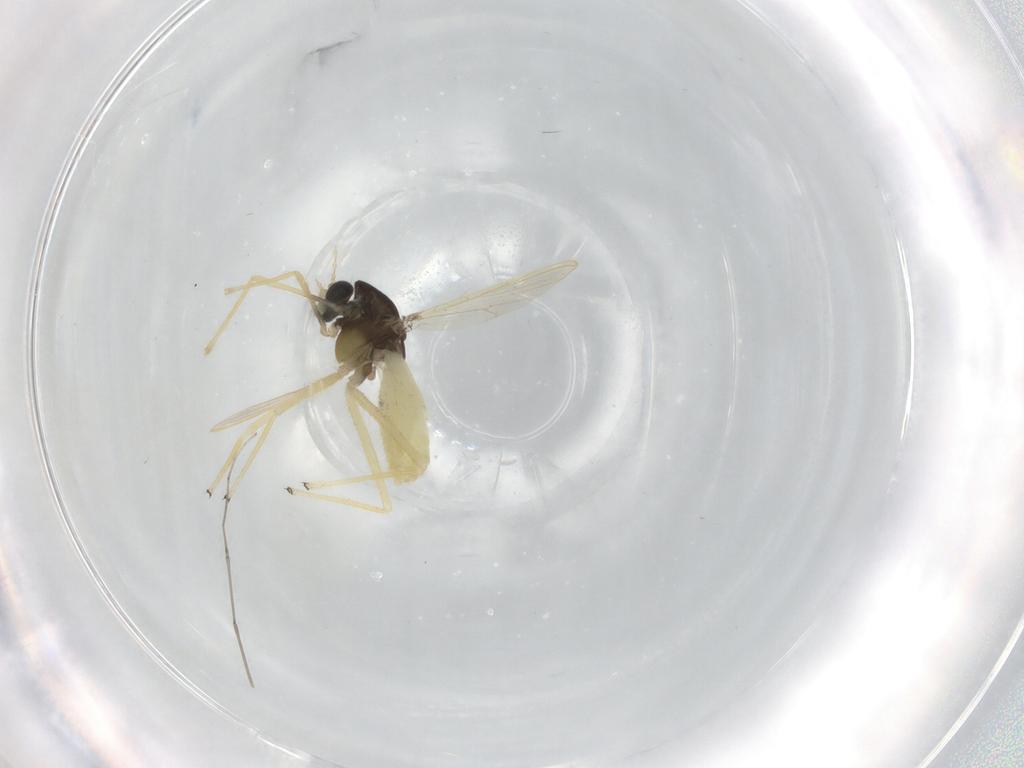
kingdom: Animalia
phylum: Arthropoda
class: Insecta
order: Diptera
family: Chironomidae
